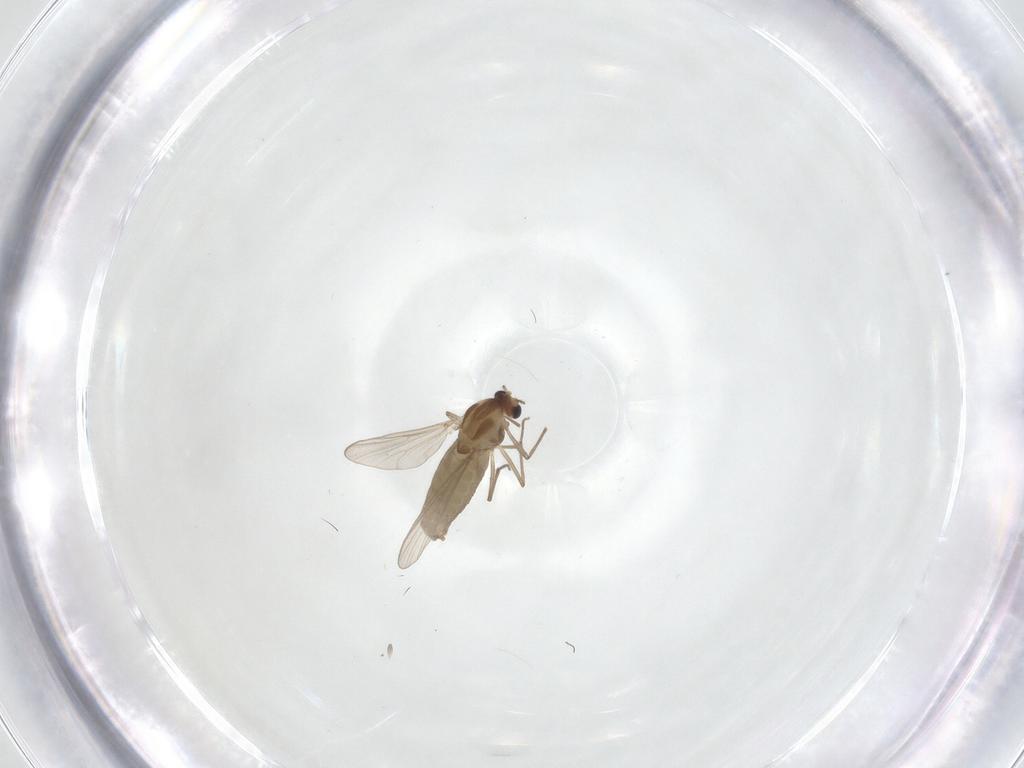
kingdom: Animalia
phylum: Arthropoda
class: Insecta
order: Diptera
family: Chironomidae
